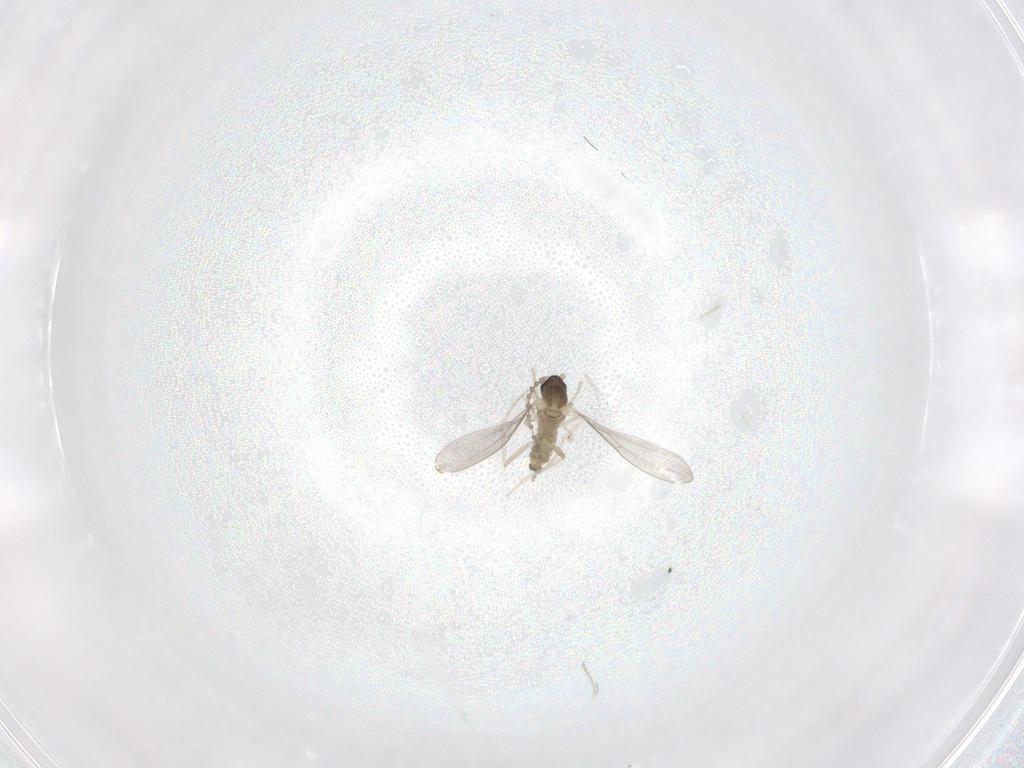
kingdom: Animalia
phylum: Arthropoda
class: Insecta
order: Diptera
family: Cecidomyiidae
